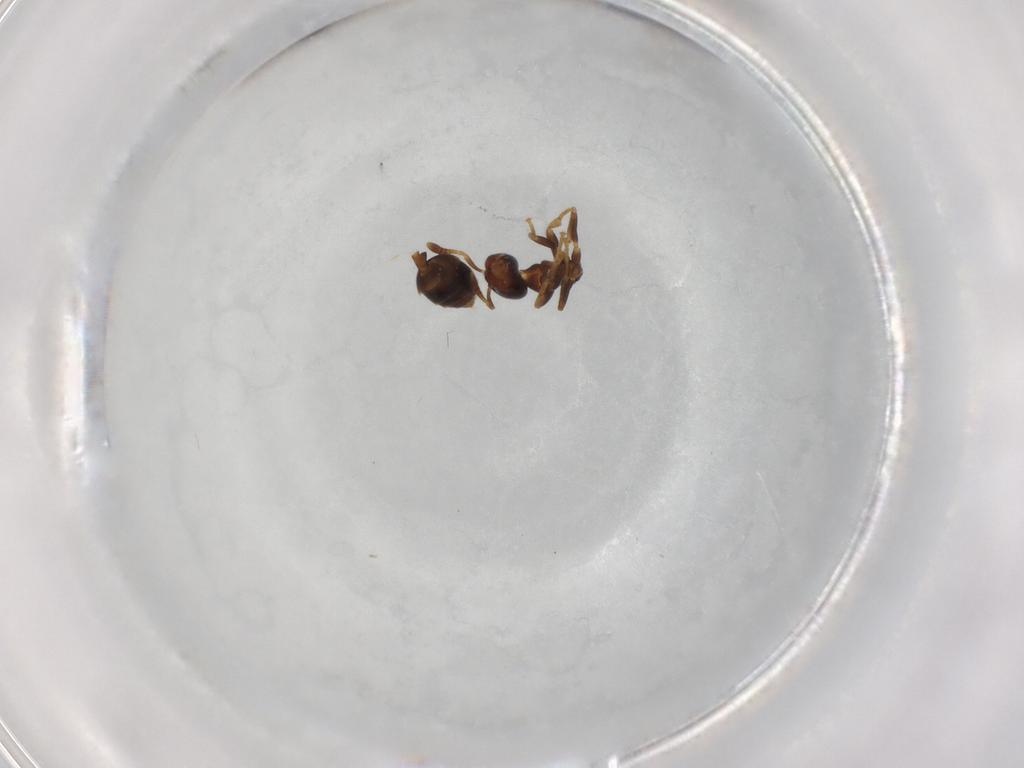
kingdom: Animalia
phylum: Arthropoda
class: Insecta
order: Hymenoptera
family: Formicidae
